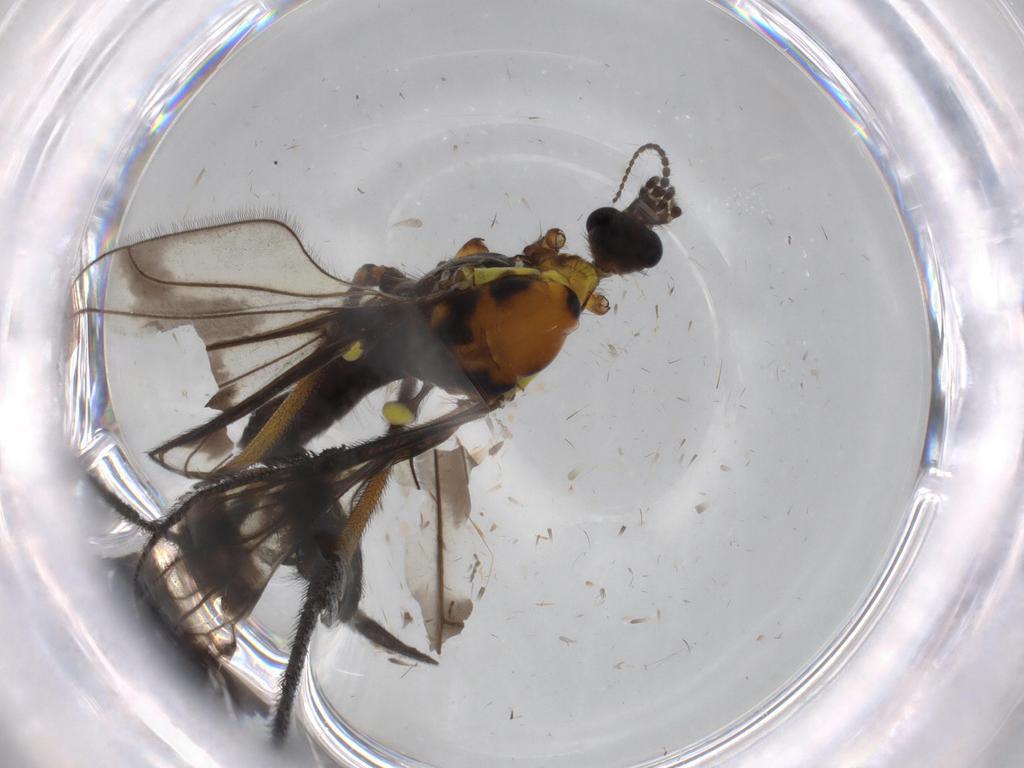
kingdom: Animalia
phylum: Arthropoda
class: Insecta
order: Diptera
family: Limoniidae
